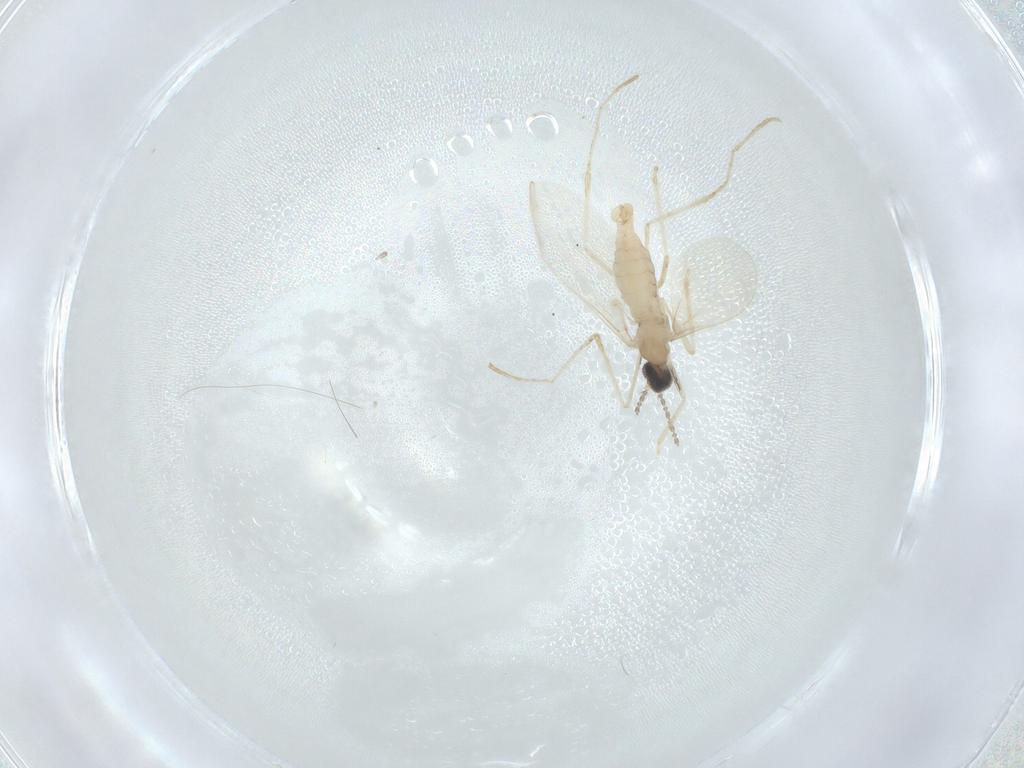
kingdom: Animalia
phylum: Arthropoda
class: Insecta
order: Diptera
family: Cecidomyiidae
